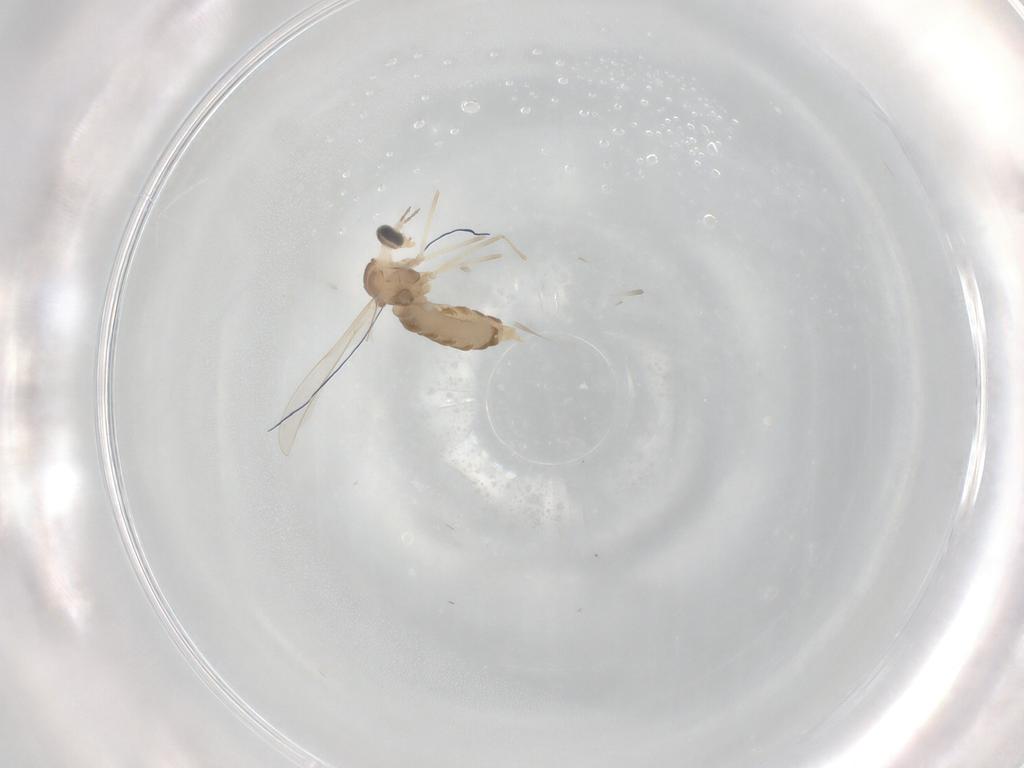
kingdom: Animalia
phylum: Arthropoda
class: Insecta
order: Diptera
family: Cecidomyiidae
